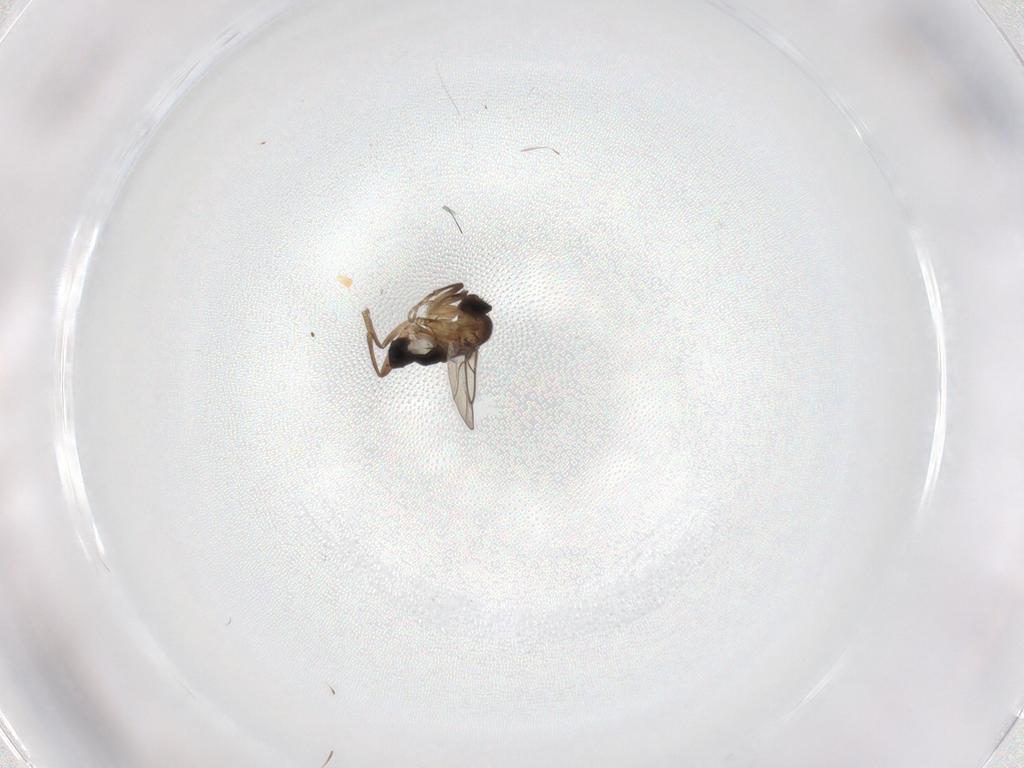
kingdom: Animalia
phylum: Arthropoda
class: Insecta
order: Diptera
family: Phoridae
